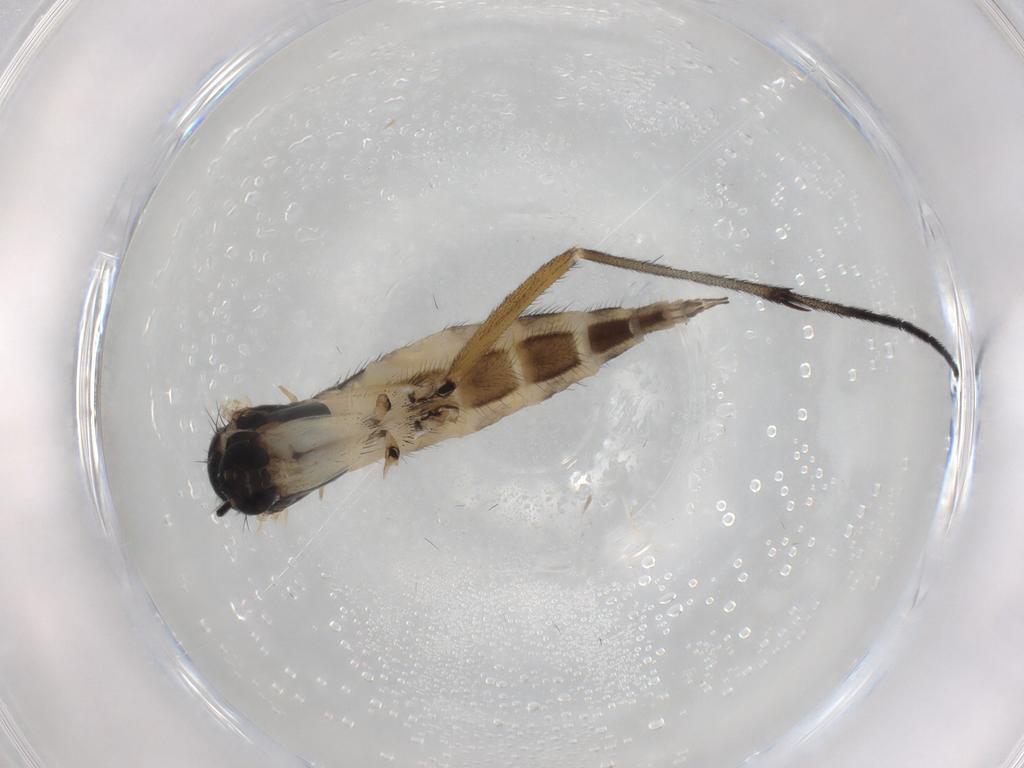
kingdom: Animalia
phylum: Arthropoda
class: Insecta
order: Diptera
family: Sciaridae
